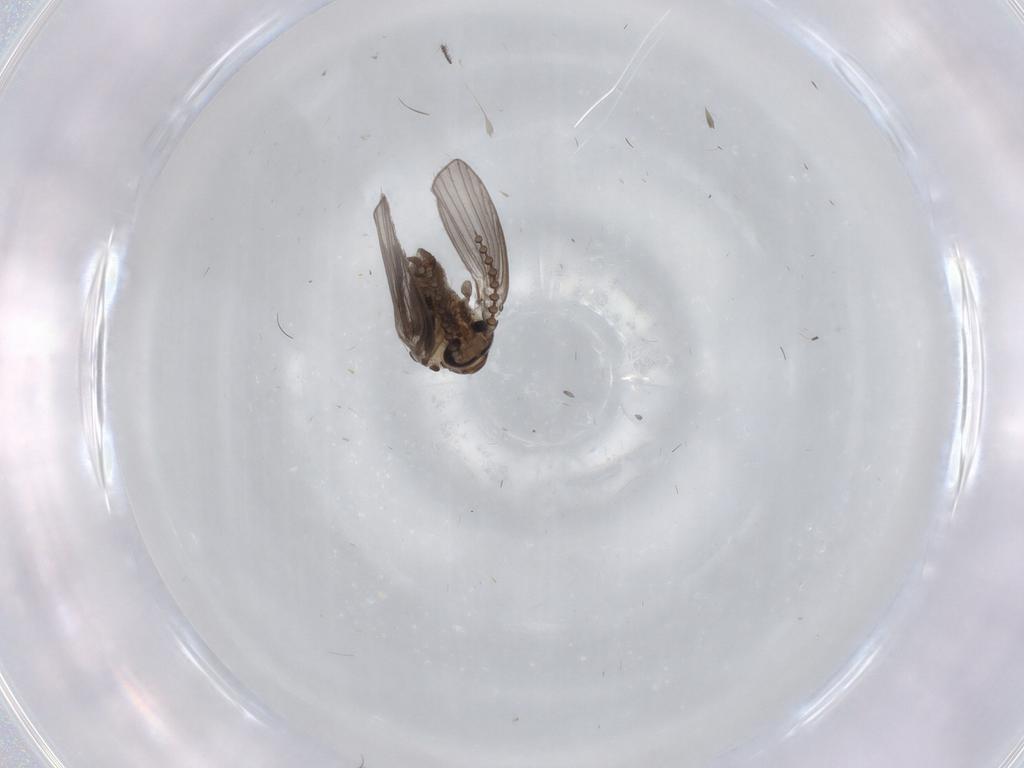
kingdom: Animalia
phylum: Arthropoda
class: Insecta
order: Diptera
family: Psychodidae
